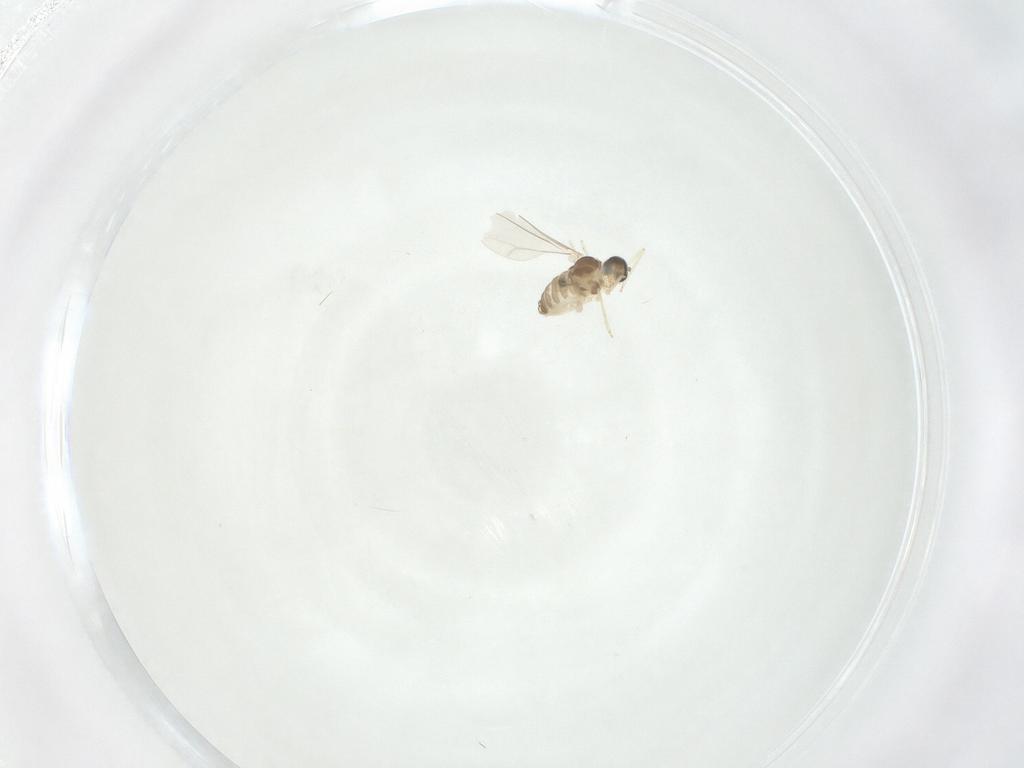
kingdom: Animalia
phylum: Arthropoda
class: Insecta
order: Diptera
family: Cecidomyiidae
